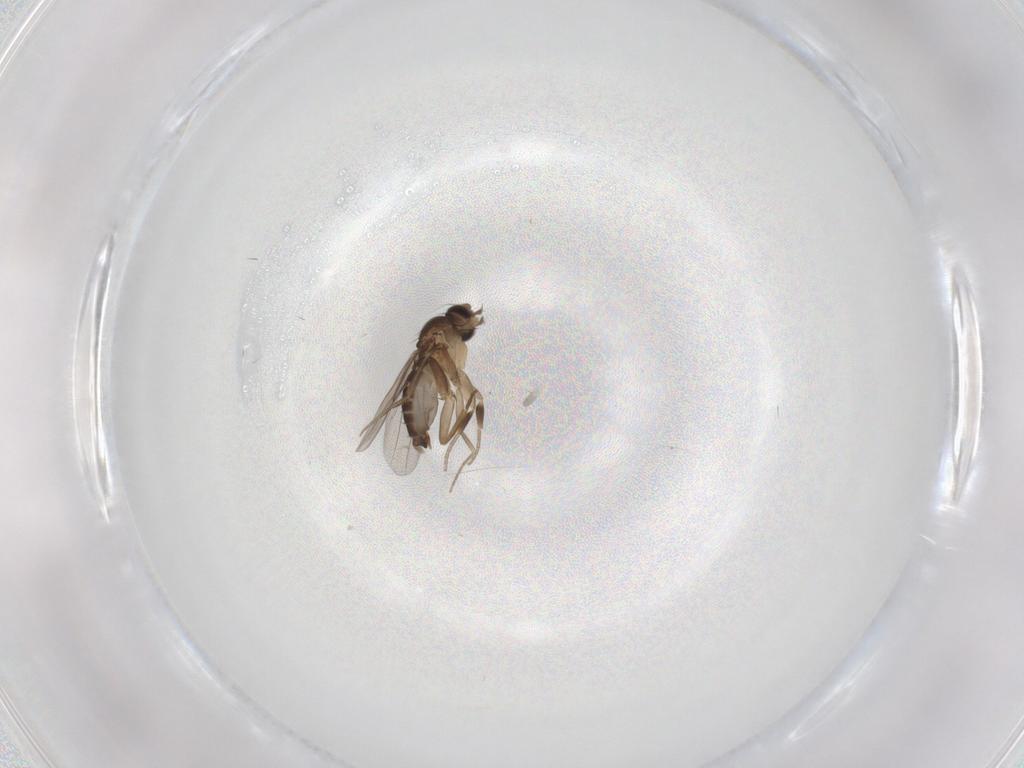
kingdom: Animalia
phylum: Arthropoda
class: Insecta
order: Diptera
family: Phoridae
